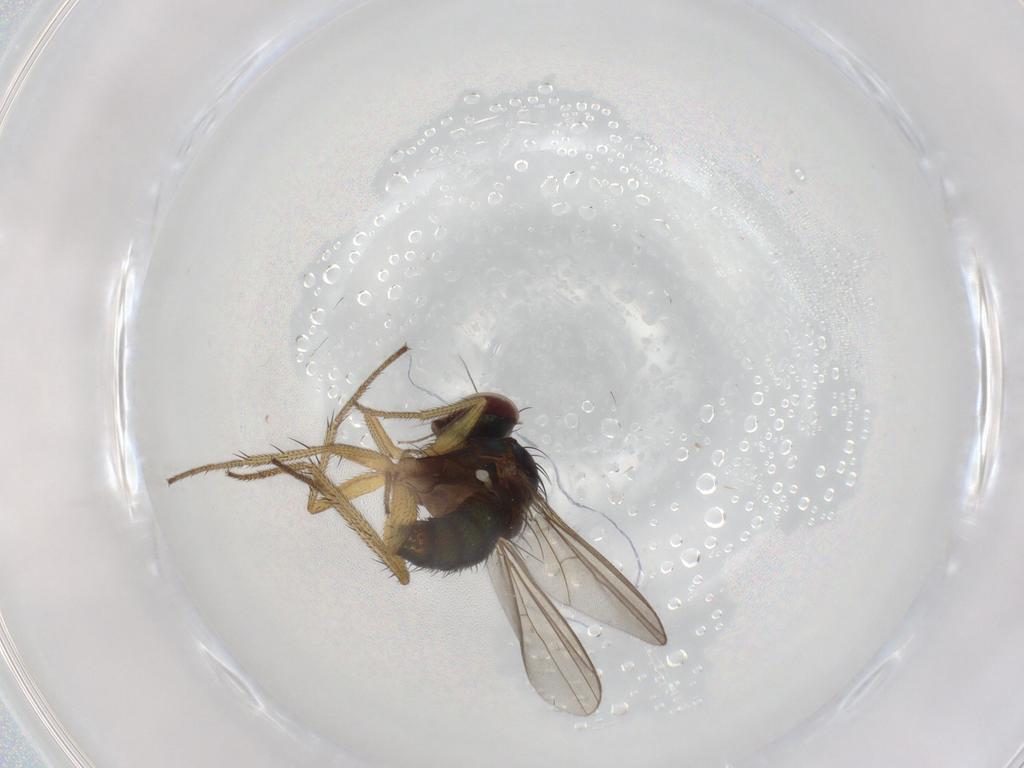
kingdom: Animalia
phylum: Arthropoda
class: Insecta
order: Diptera
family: Dolichopodidae
